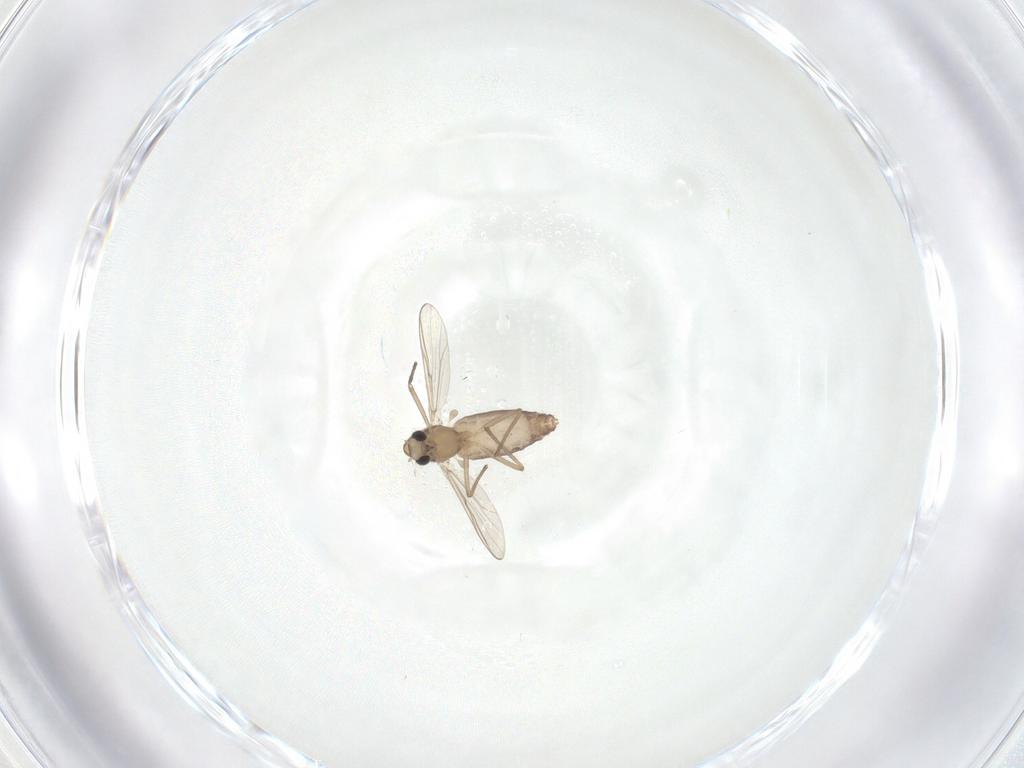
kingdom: Animalia
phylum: Arthropoda
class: Insecta
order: Diptera
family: Chironomidae
